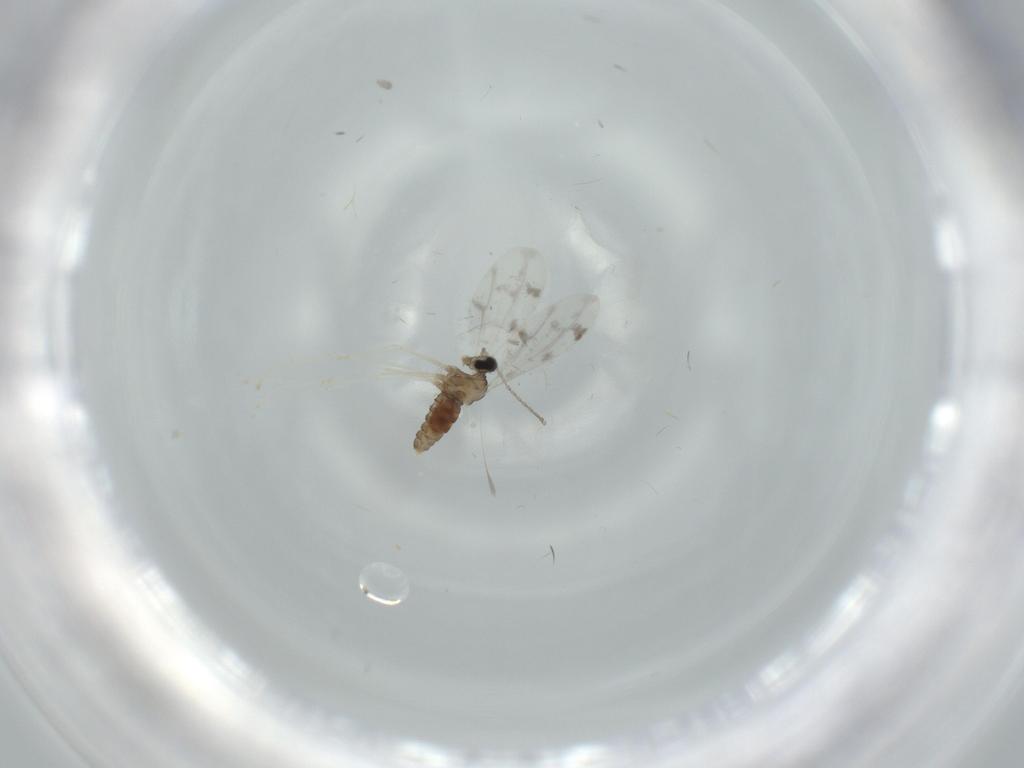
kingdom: Animalia
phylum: Arthropoda
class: Insecta
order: Diptera
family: Cecidomyiidae
